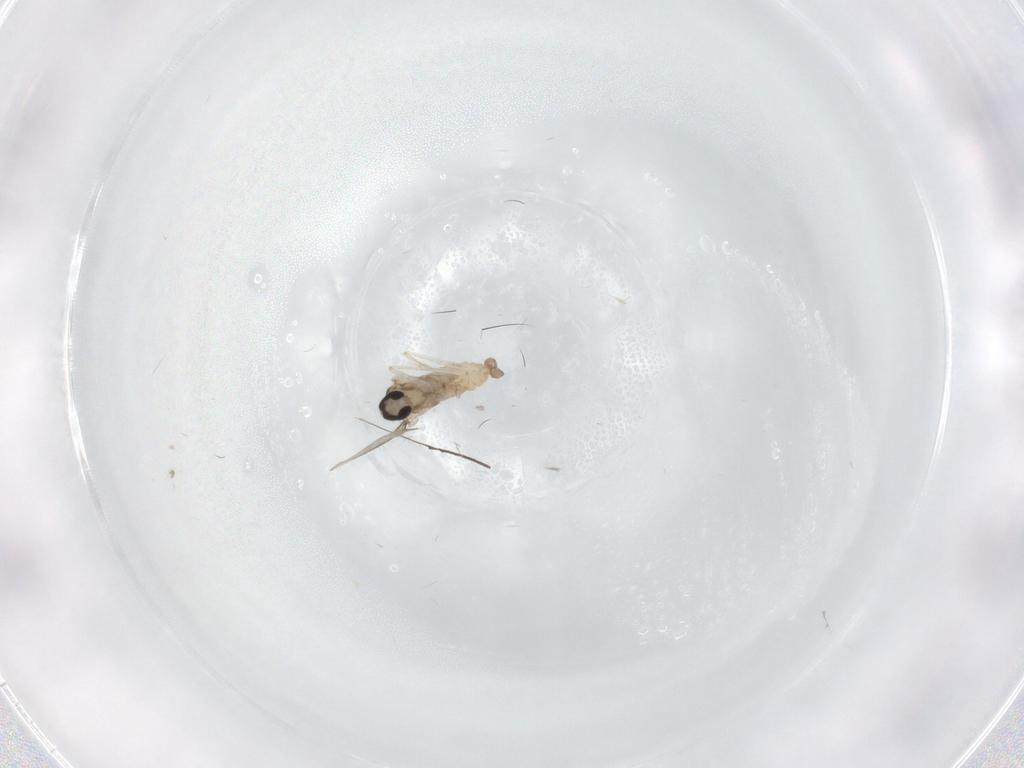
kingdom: Animalia
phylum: Arthropoda
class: Insecta
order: Diptera
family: Cecidomyiidae
